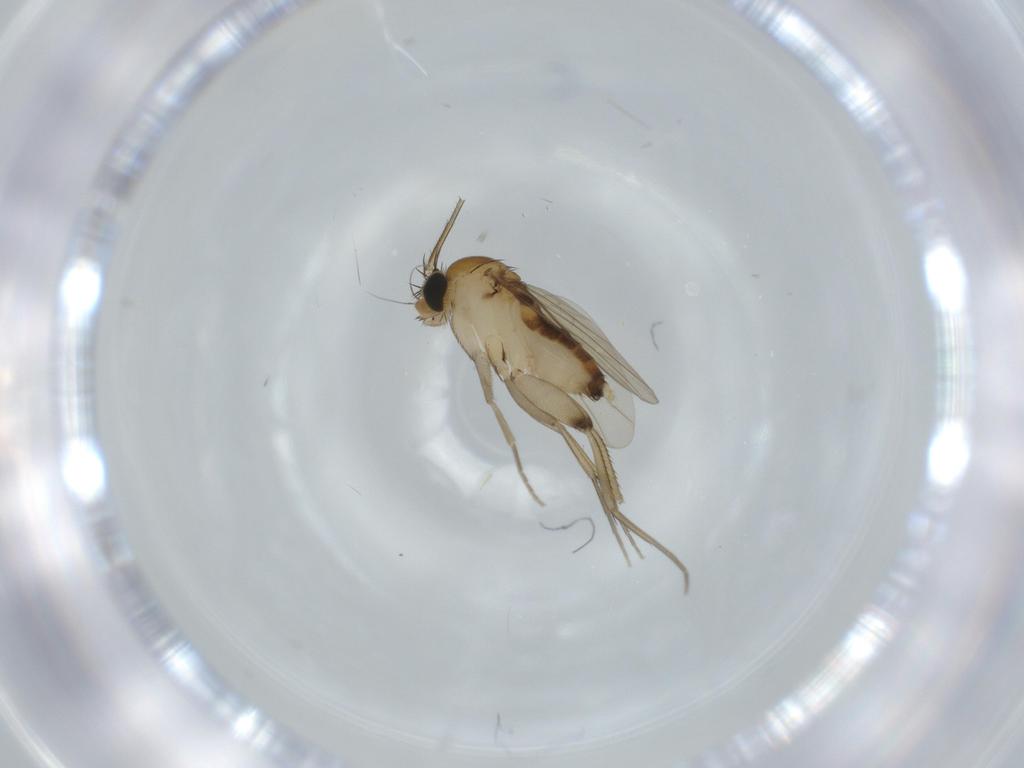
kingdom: Animalia
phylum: Arthropoda
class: Insecta
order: Diptera
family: Phoridae
